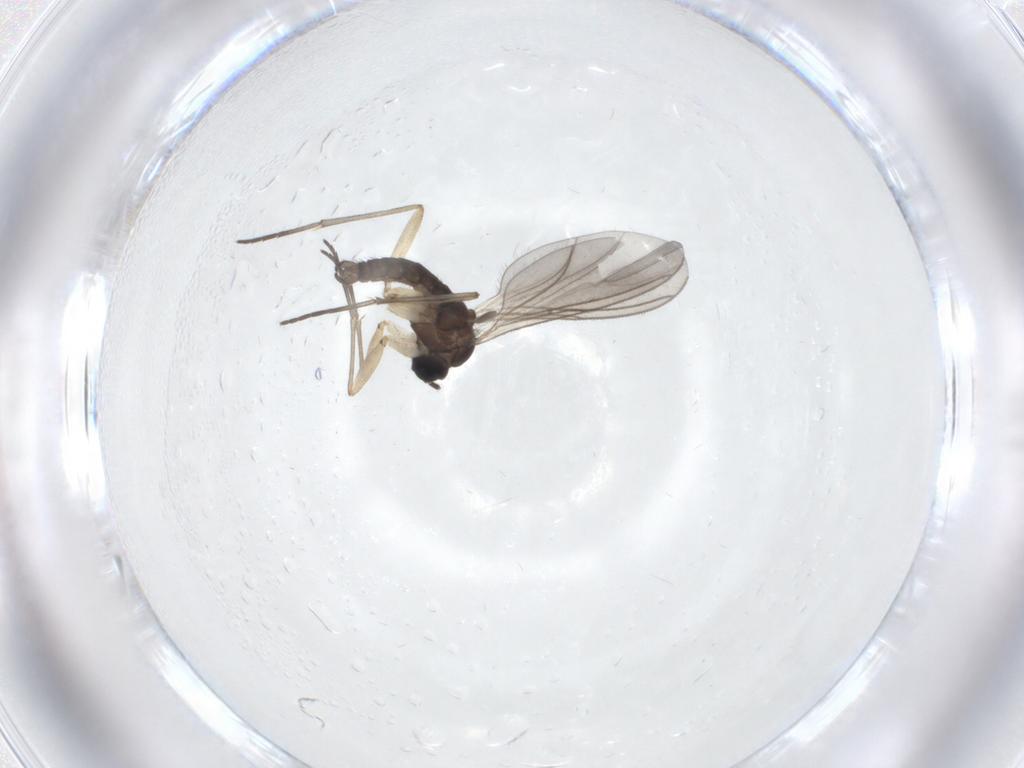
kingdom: Animalia
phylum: Arthropoda
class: Insecta
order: Diptera
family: Sciaridae
